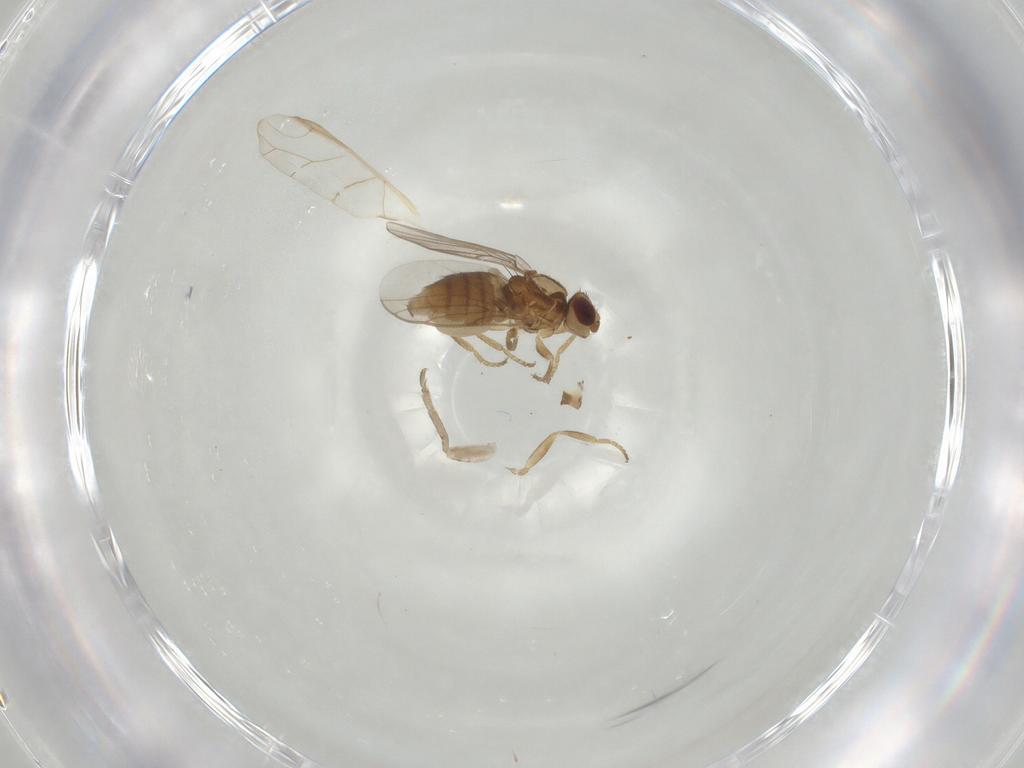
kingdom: Animalia
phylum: Arthropoda
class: Insecta
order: Diptera
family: Chloropidae
